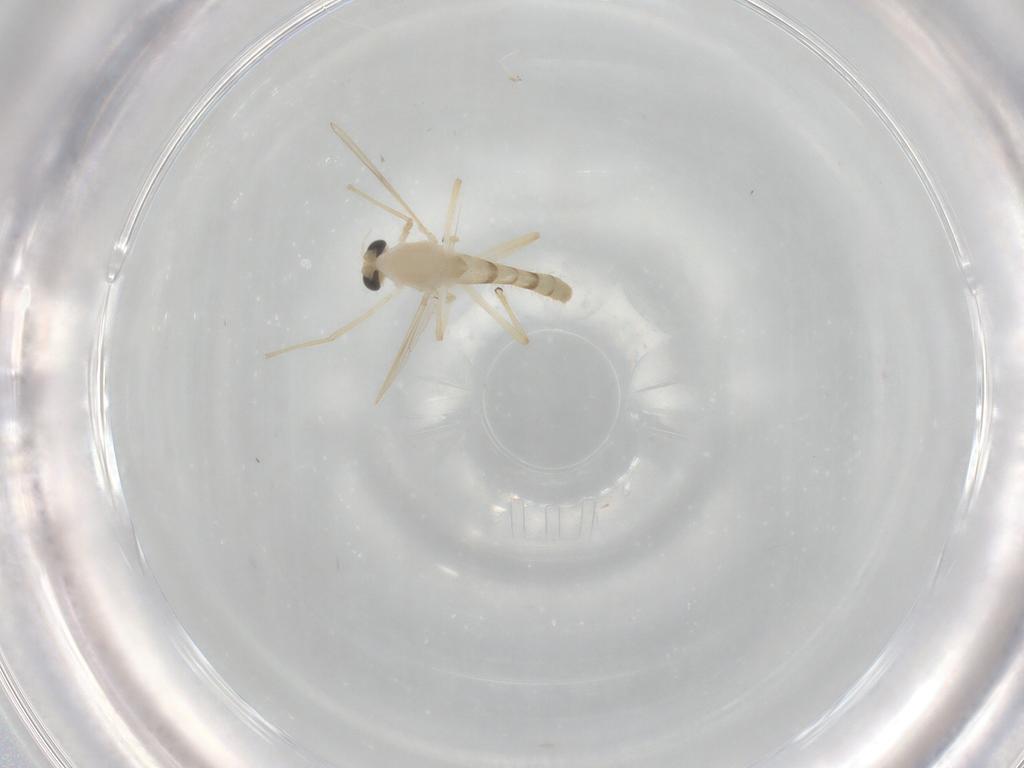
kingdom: Animalia
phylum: Arthropoda
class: Insecta
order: Diptera
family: Chironomidae
